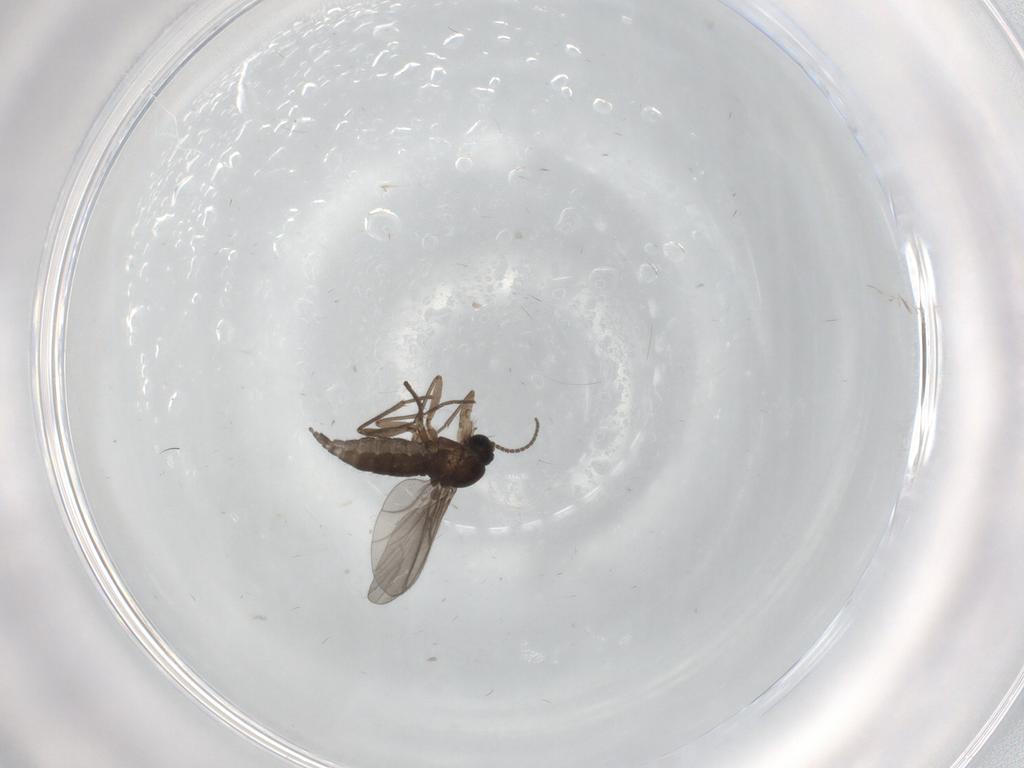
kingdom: Animalia
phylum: Arthropoda
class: Insecta
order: Diptera
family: Sciaridae
